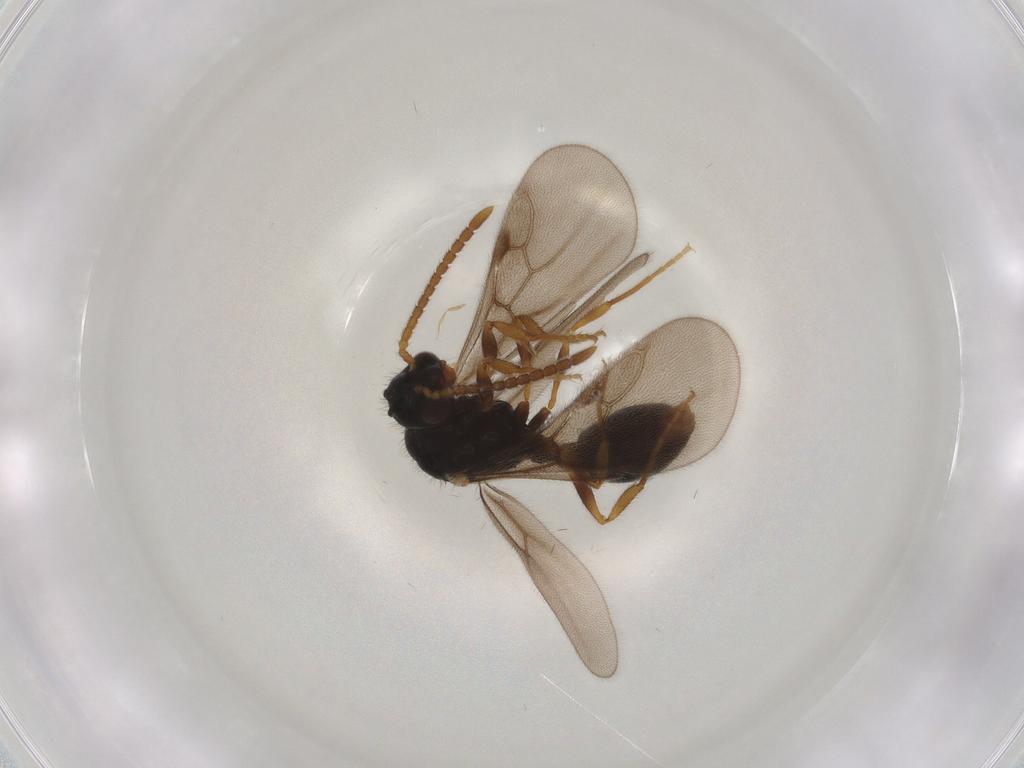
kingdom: Animalia
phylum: Arthropoda
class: Insecta
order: Hymenoptera
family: Formicidae
